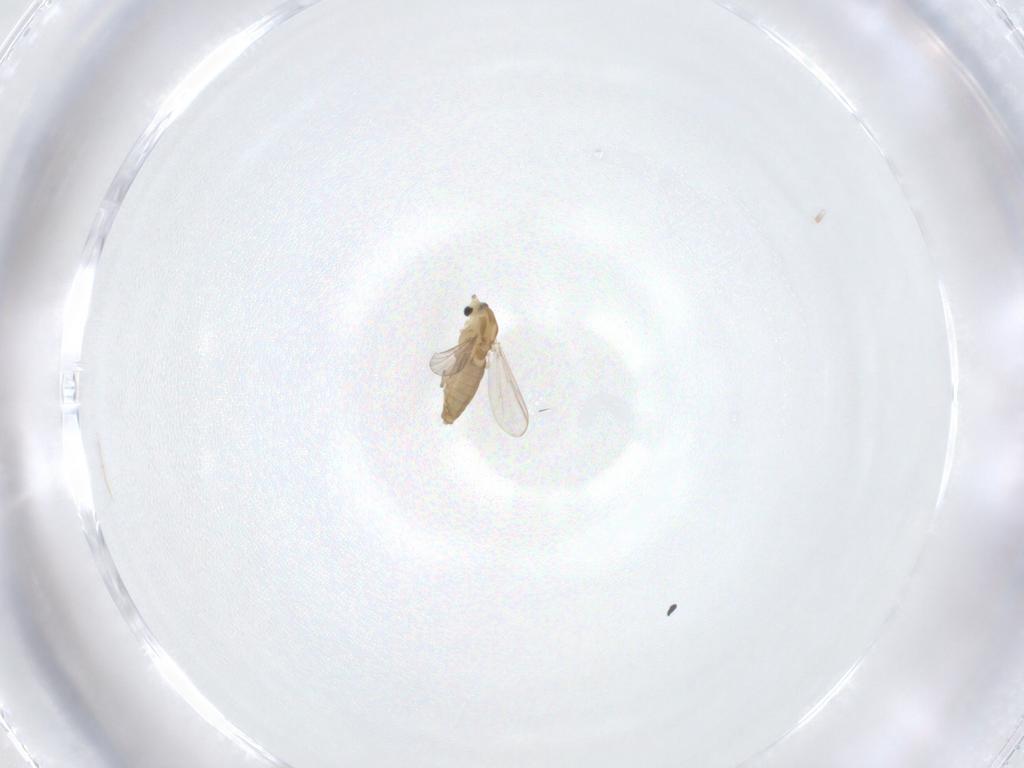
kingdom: Animalia
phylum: Arthropoda
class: Insecta
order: Diptera
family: Chironomidae
